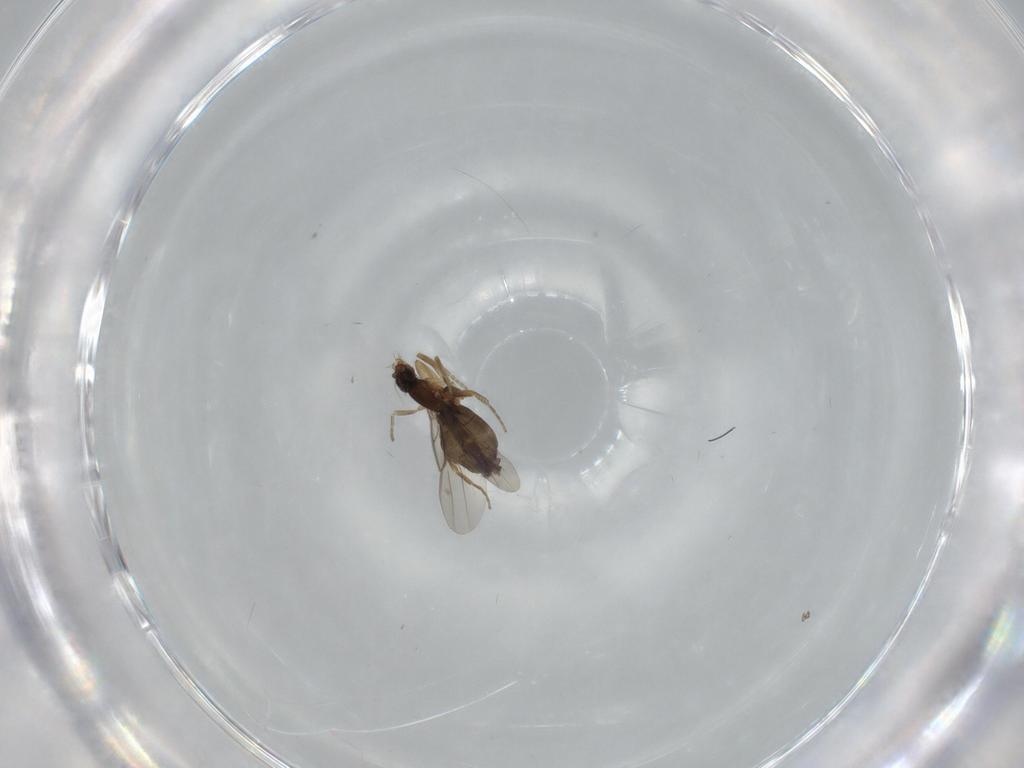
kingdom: Animalia
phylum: Arthropoda
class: Insecta
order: Diptera
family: Phoridae
